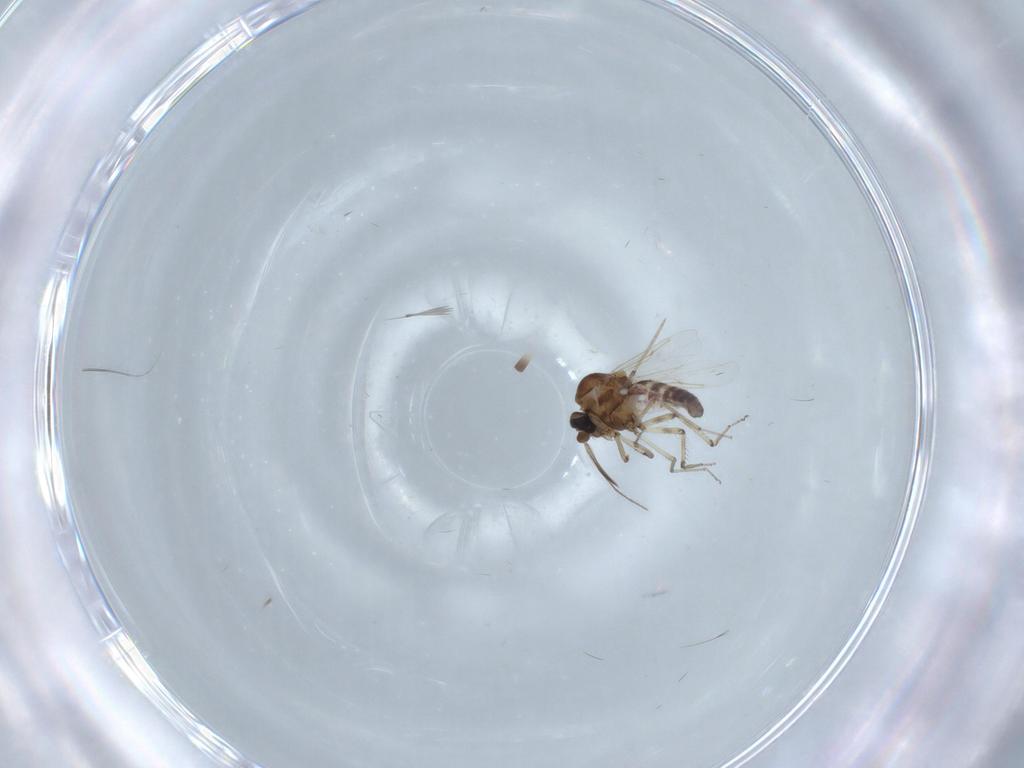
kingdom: Animalia
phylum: Arthropoda
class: Insecta
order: Diptera
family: Ceratopogonidae
